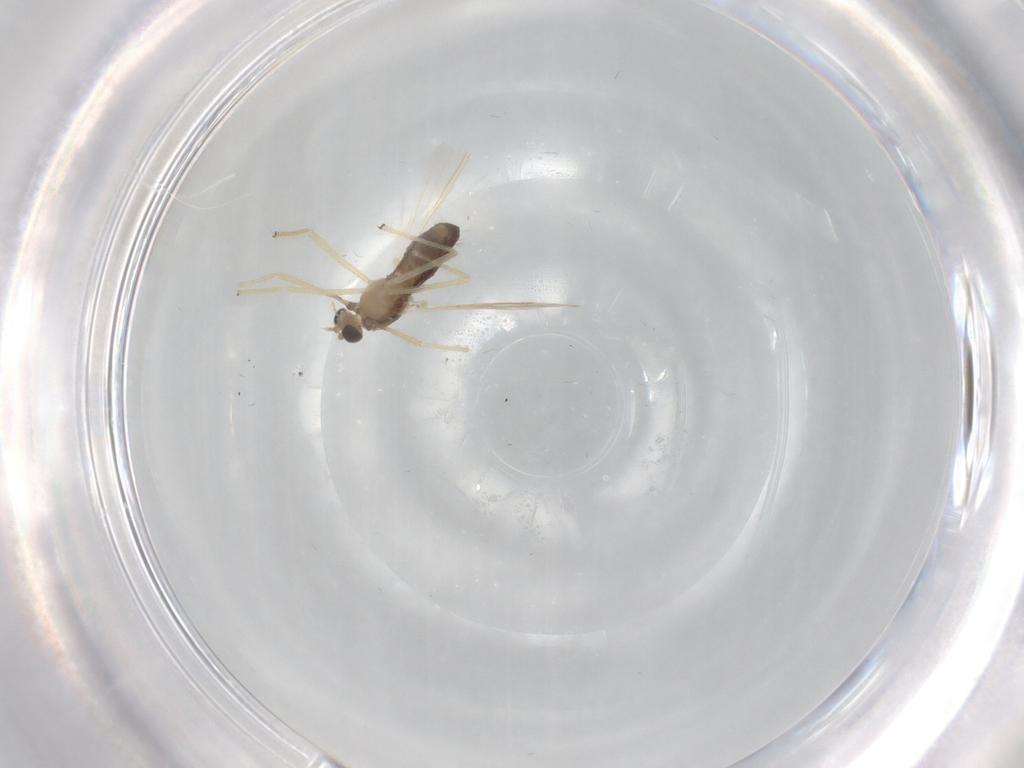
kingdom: Animalia
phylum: Arthropoda
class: Insecta
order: Diptera
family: Chironomidae
